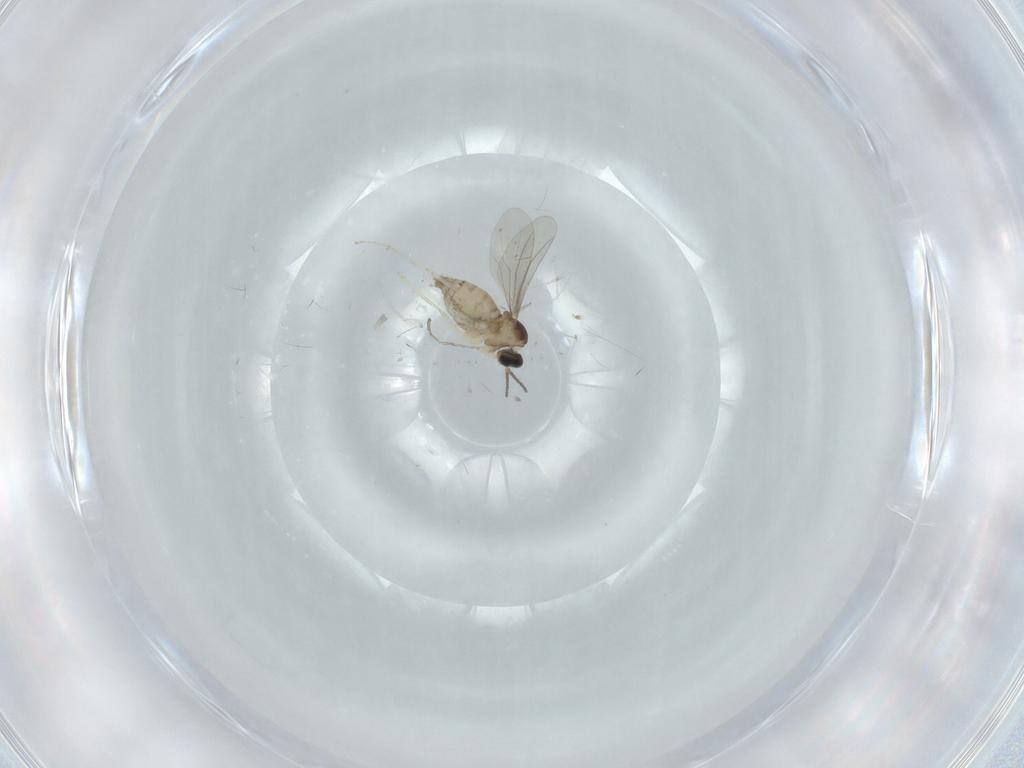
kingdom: Animalia
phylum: Arthropoda
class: Insecta
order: Diptera
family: Cecidomyiidae
